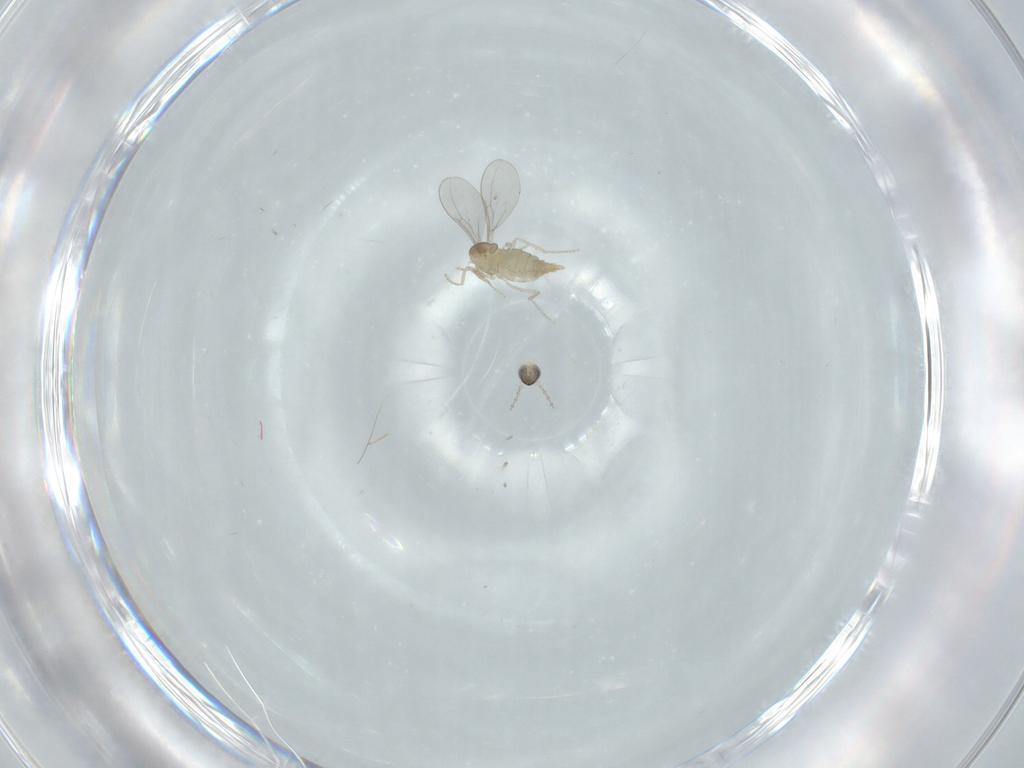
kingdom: Animalia
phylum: Arthropoda
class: Insecta
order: Diptera
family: Cecidomyiidae
